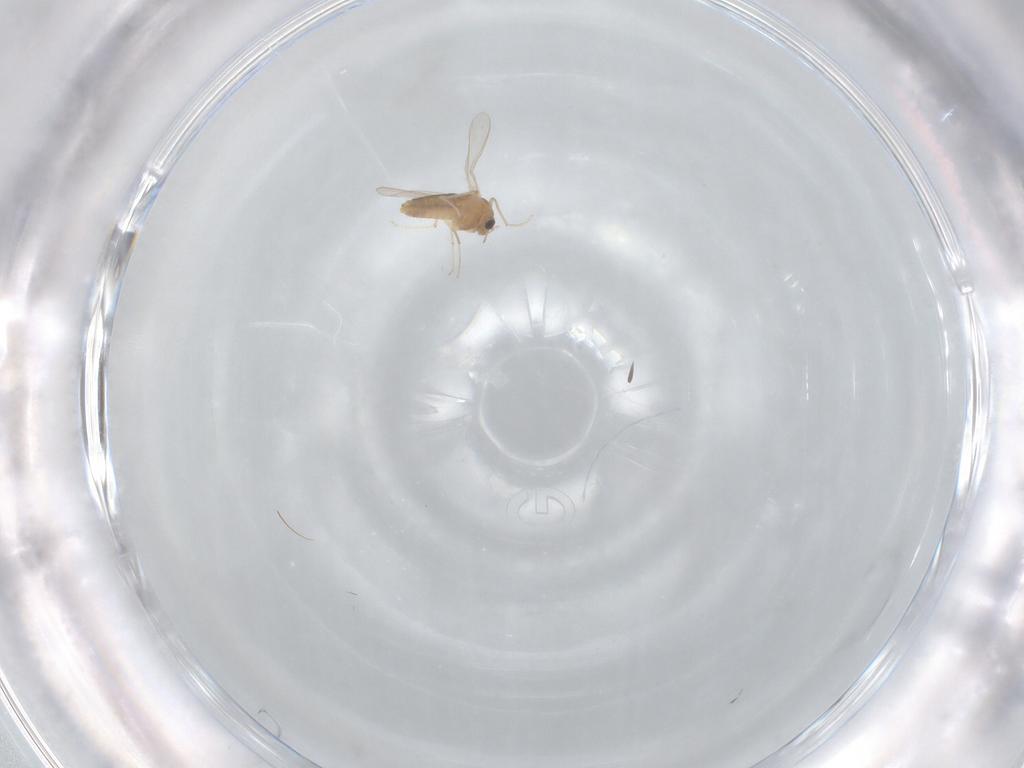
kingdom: Animalia
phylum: Arthropoda
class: Insecta
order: Diptera
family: Chironomidae
